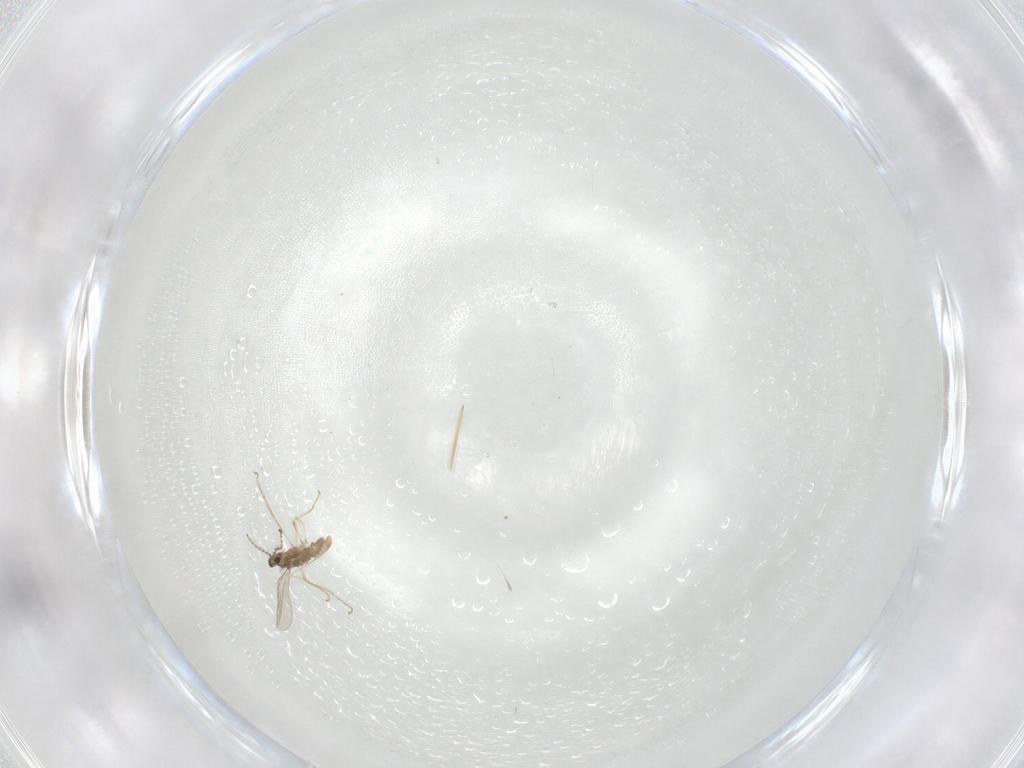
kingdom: Animalia
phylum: Arthropoda
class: Insecta
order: Diptera
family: Cecidomyiidae
